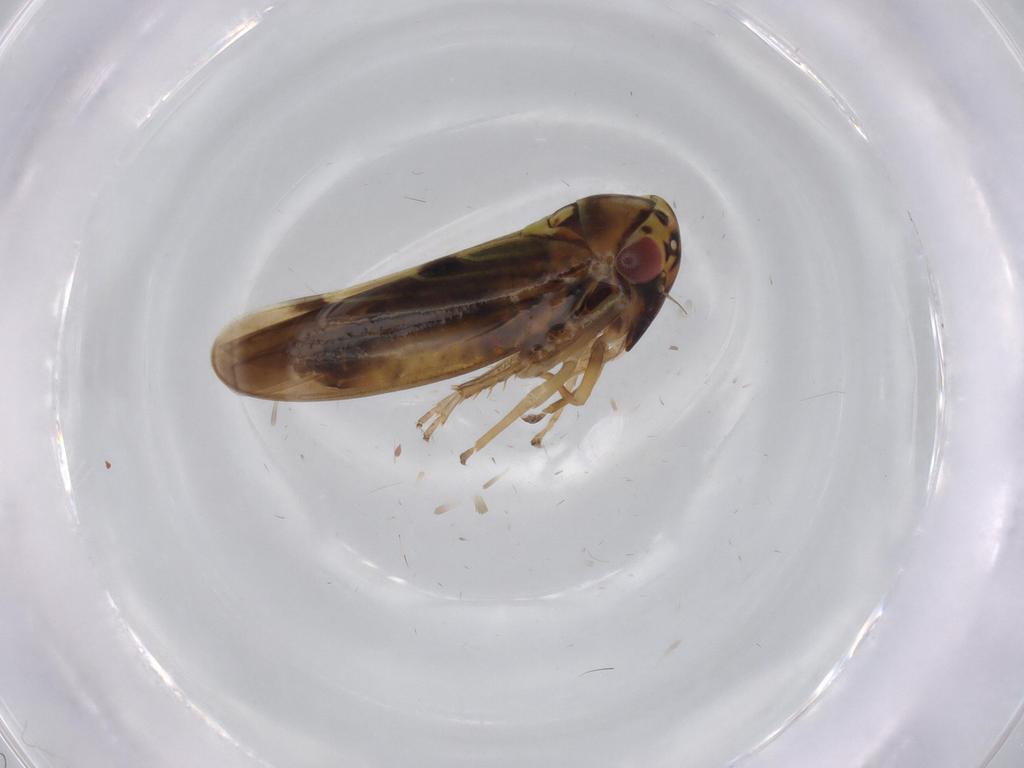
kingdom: Animalia
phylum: Arthropoda
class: Insecta
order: Hemiptera
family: Cicadellidae
